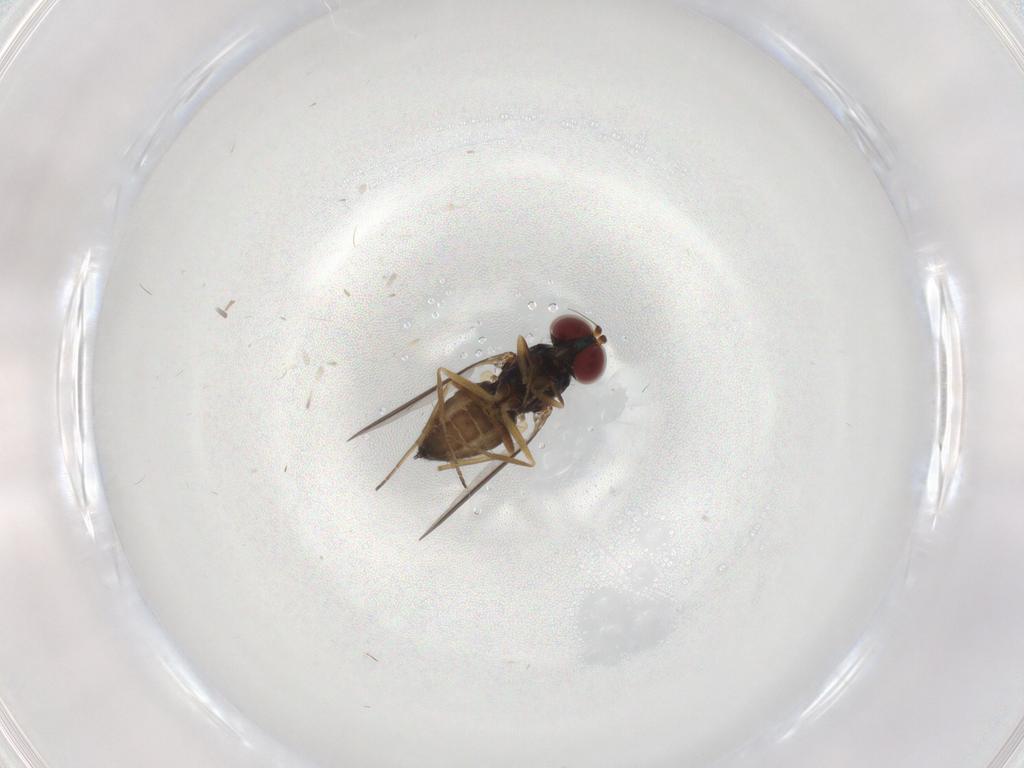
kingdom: Animalia
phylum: Arthropoda
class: Insecta
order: Diptera
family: Dolichopodidae
